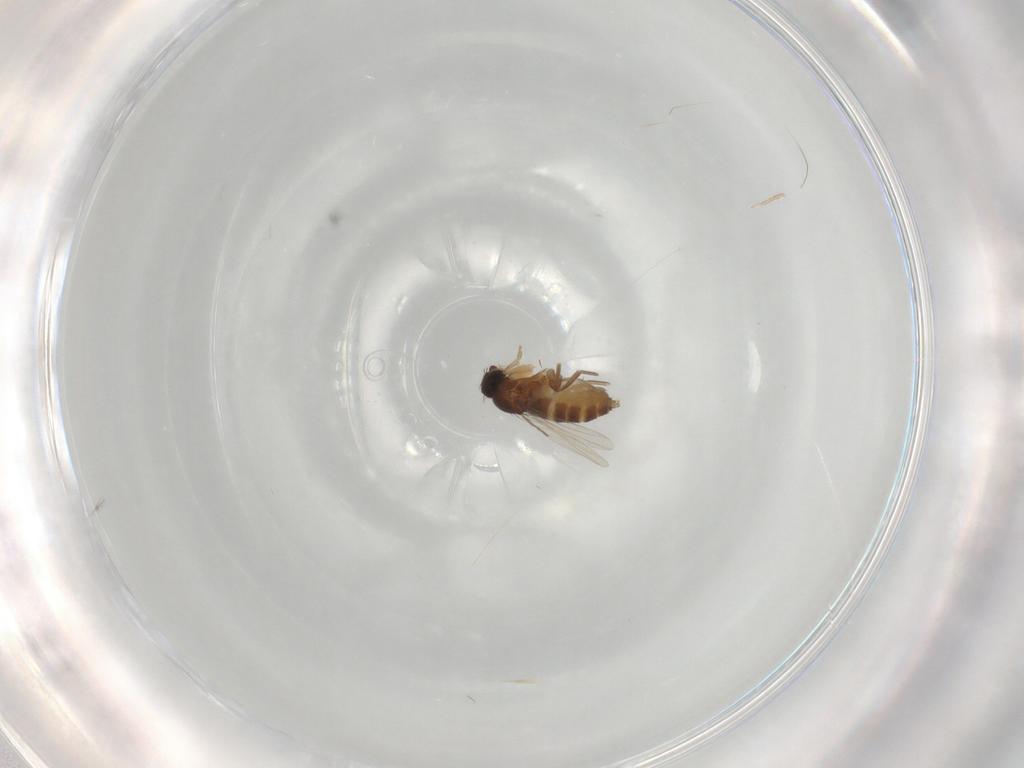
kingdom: Animalia
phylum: Arthropoda
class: Insecta
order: Diptera
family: Phoridae
